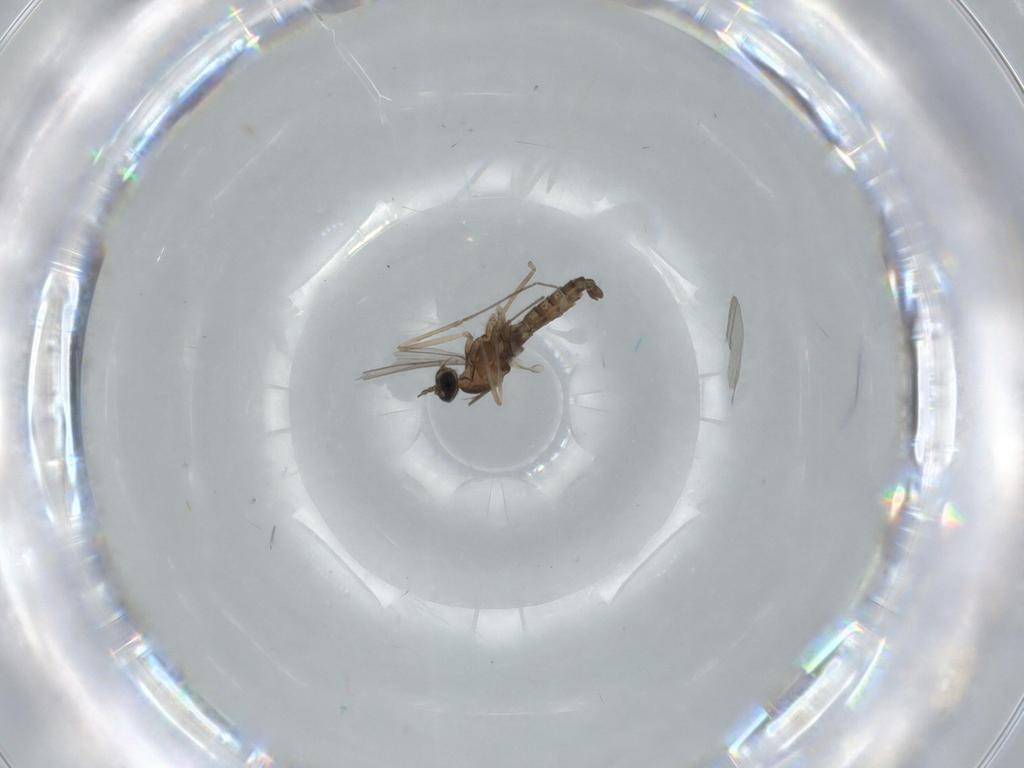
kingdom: Animalia
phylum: Arthropoda
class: Insecta
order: Diptera
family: Cecidomyiidae
